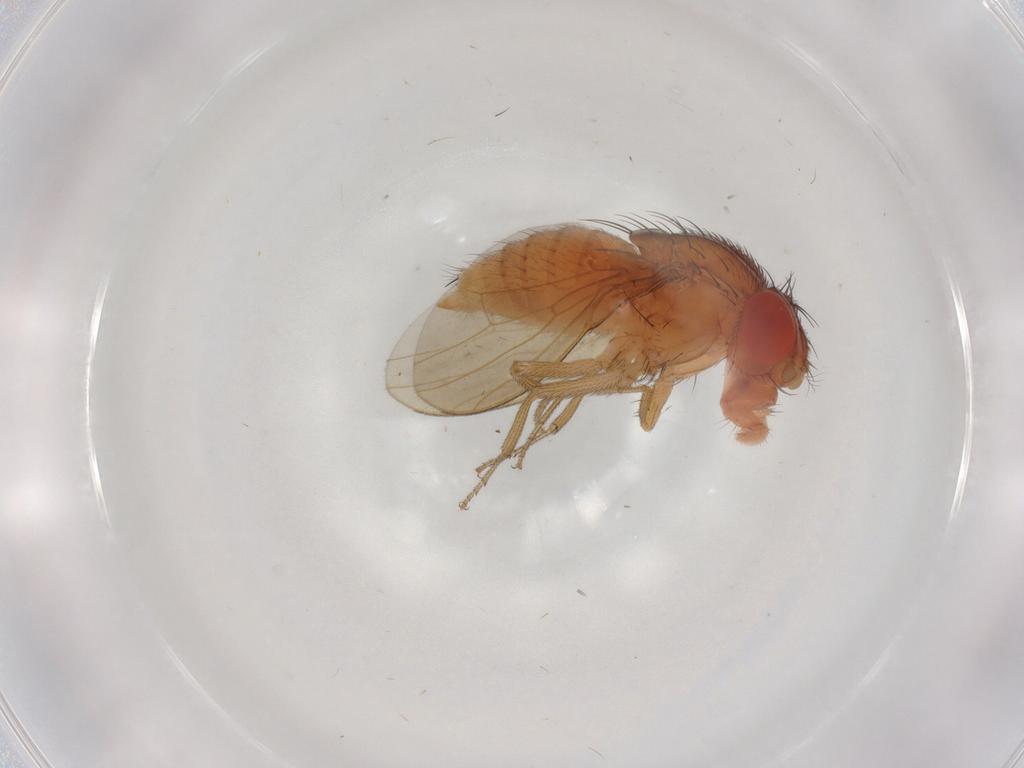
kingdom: Animalia
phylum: Arthropoda
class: Insecta
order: Diptera
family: Drosophilidae
